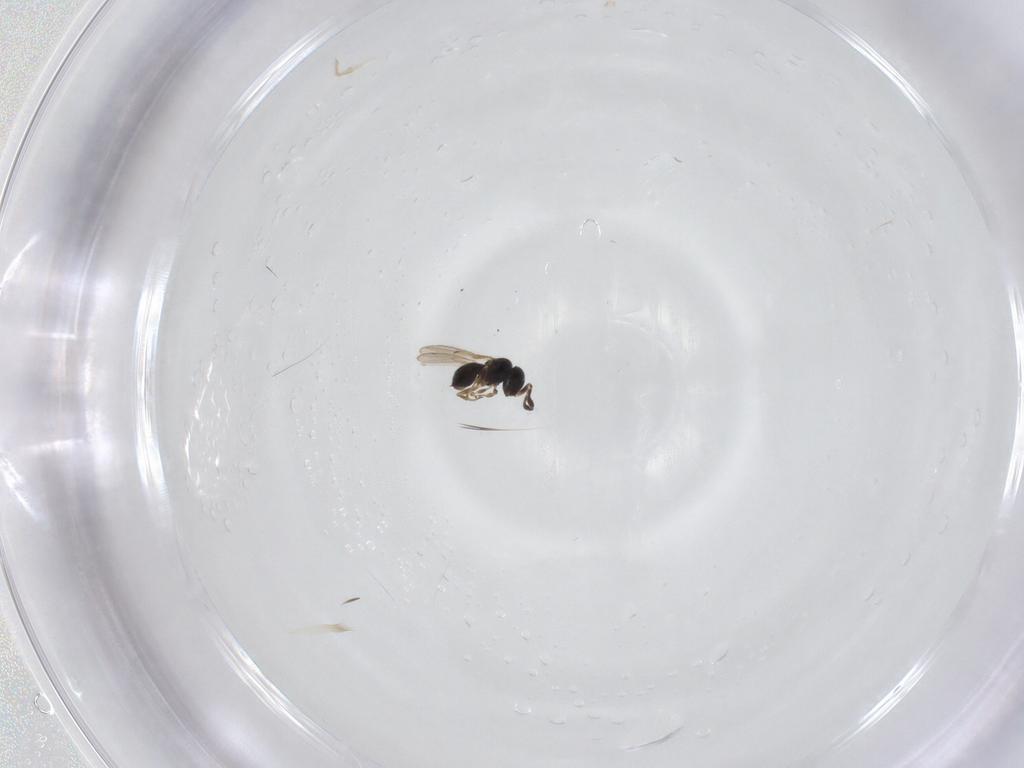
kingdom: Animalia
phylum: Arthropoda
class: Insecta
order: Hymenoptera
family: Scelionidae
